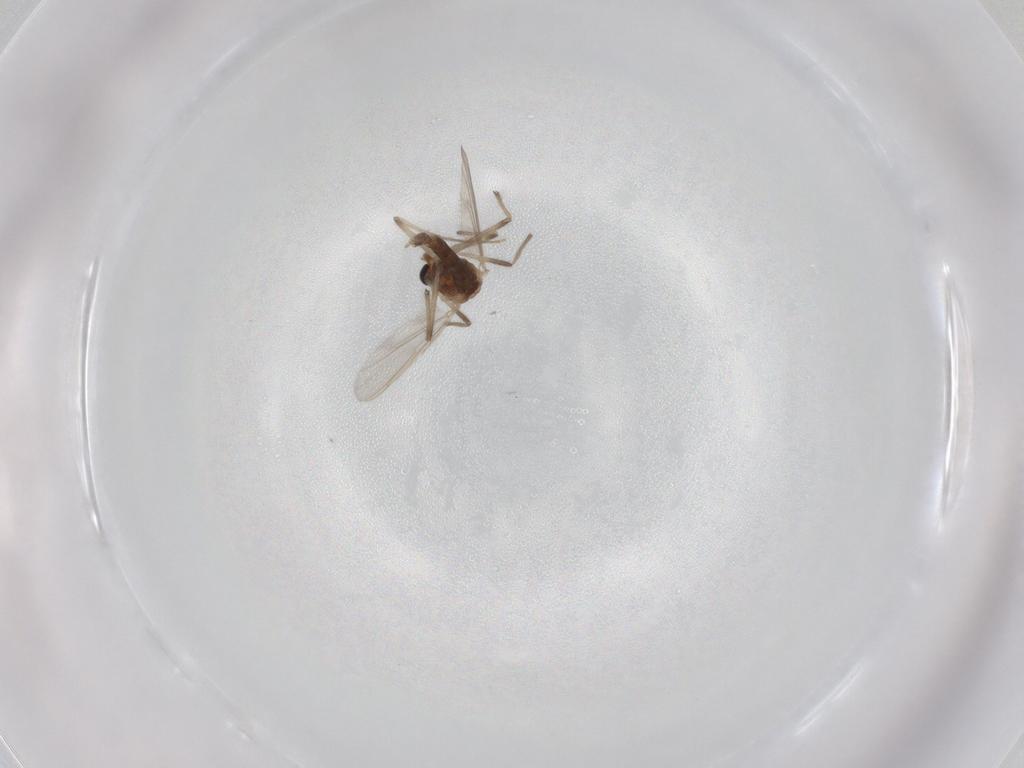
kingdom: Animalia
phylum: Arthropoda
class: Insecta
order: Diptera
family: Chironomidae
